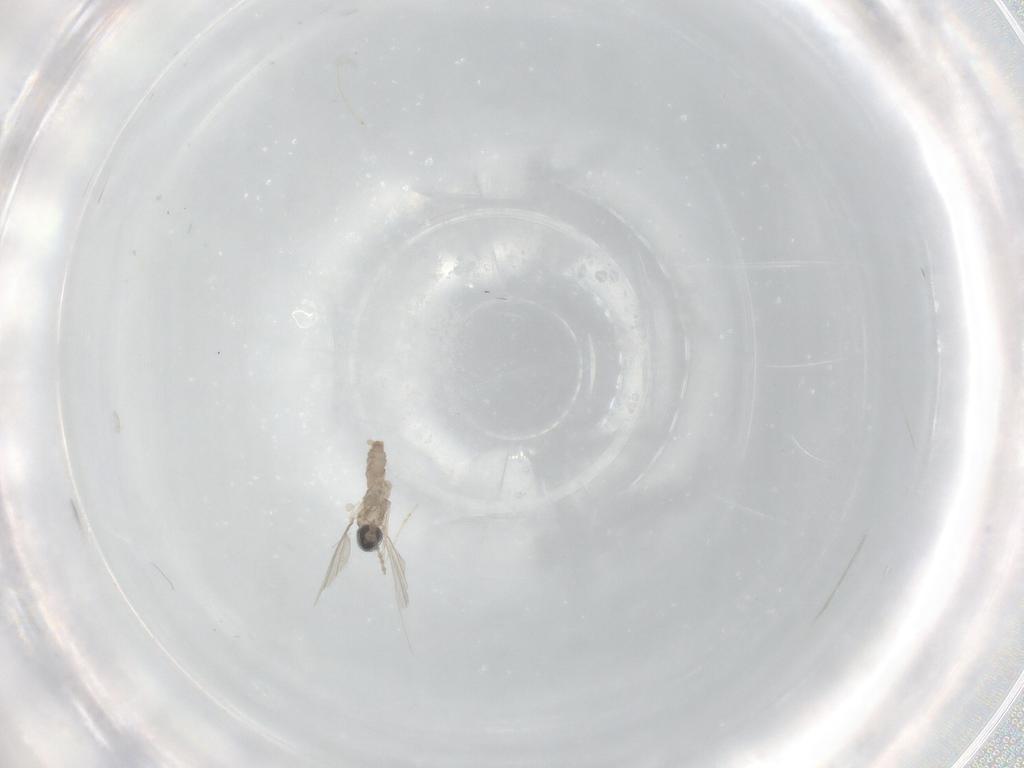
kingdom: Animalia
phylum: Arthropoda
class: Insecta
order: Diptera
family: Cecidomyiidae
